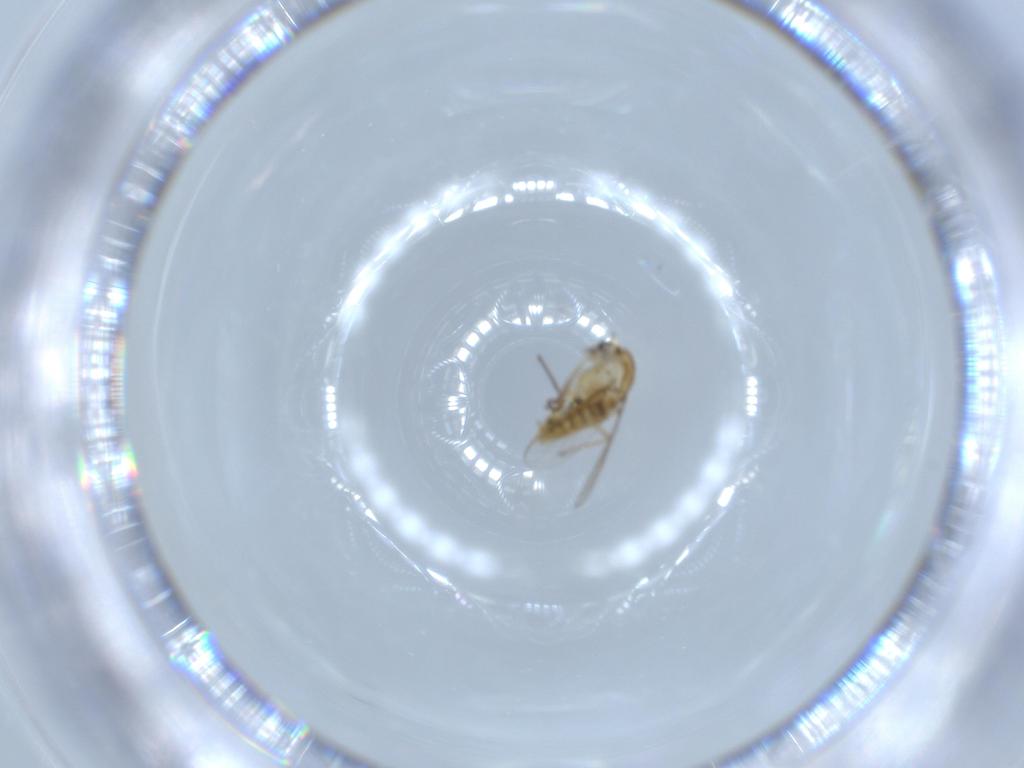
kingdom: Animalia
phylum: Arthropoda
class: Insecta
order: Diptera
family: Chironomidae
